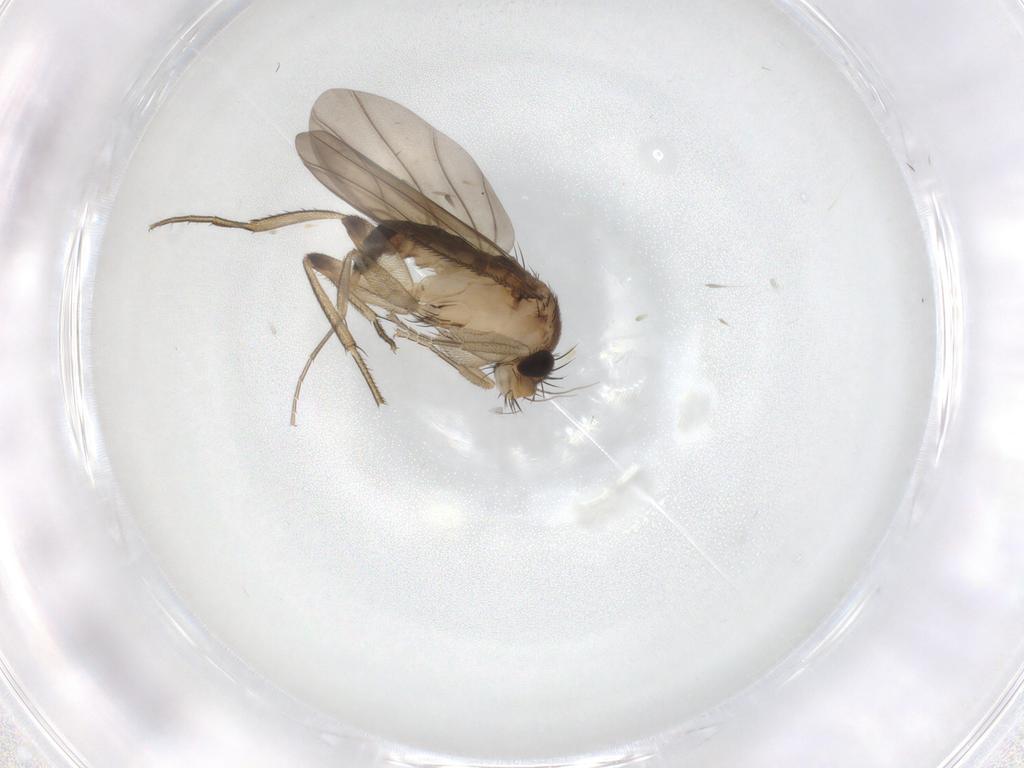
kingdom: Animalia
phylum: Arthropoda
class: Insecta
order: Diptera
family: Phoridae
